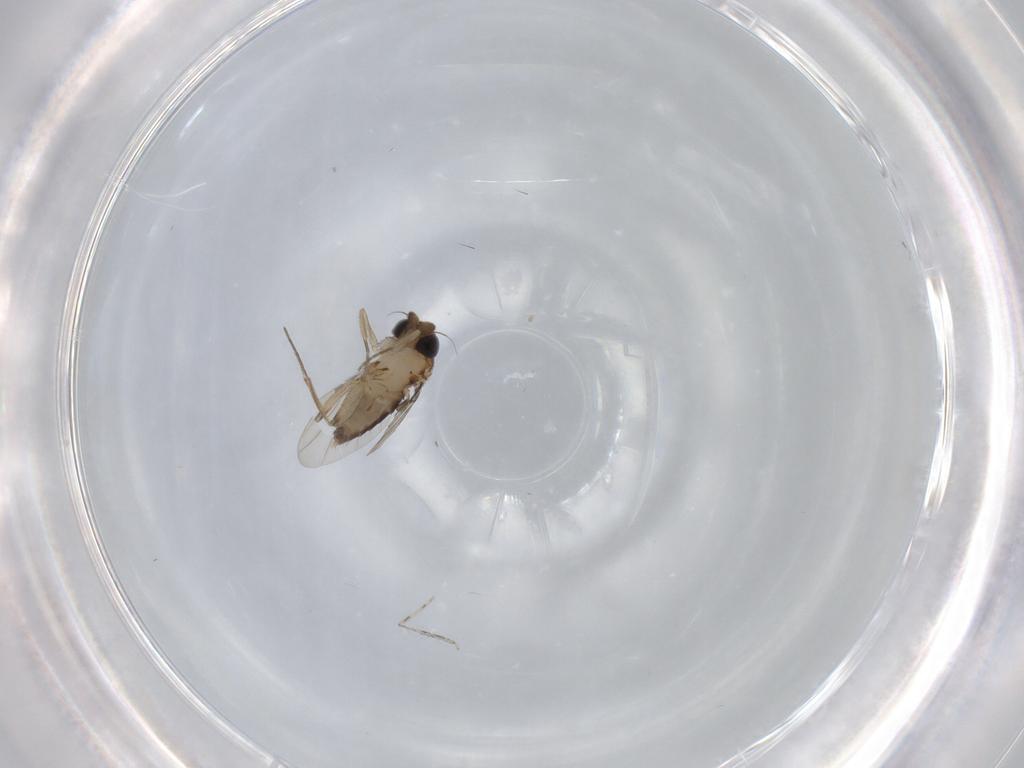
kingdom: Animalia
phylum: Arthropoda
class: Insecta
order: Diptera
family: Phoridae
